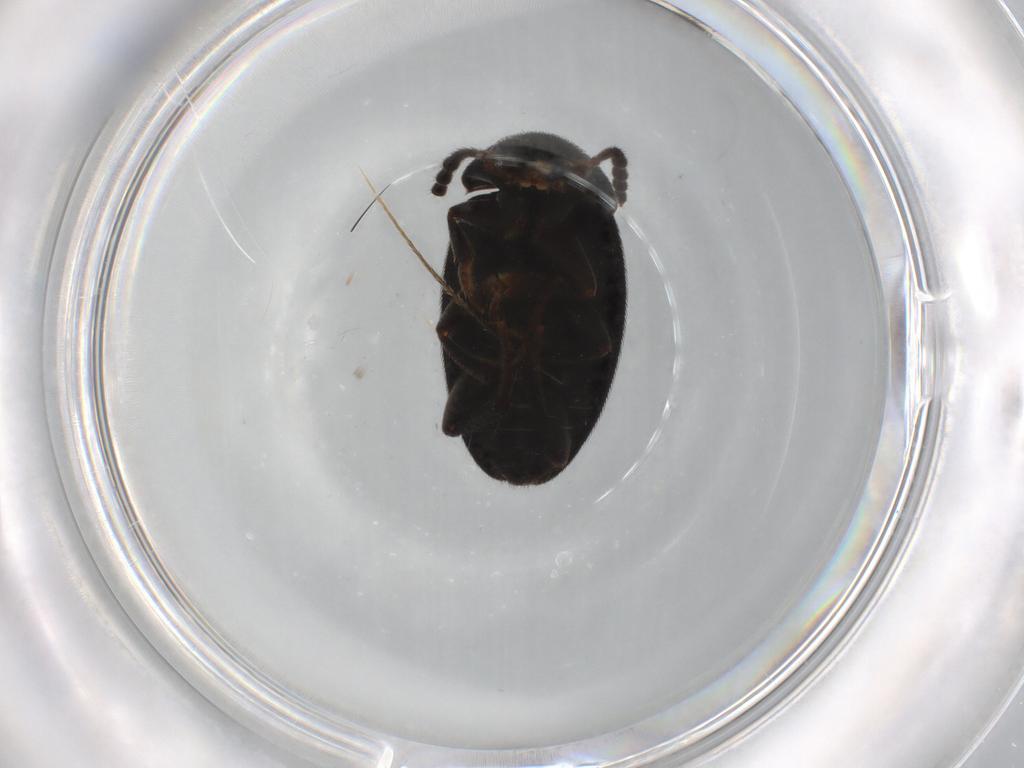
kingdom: Animalia
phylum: Arthropoda
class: Insecta
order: Coleoptera
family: Leiodidae
